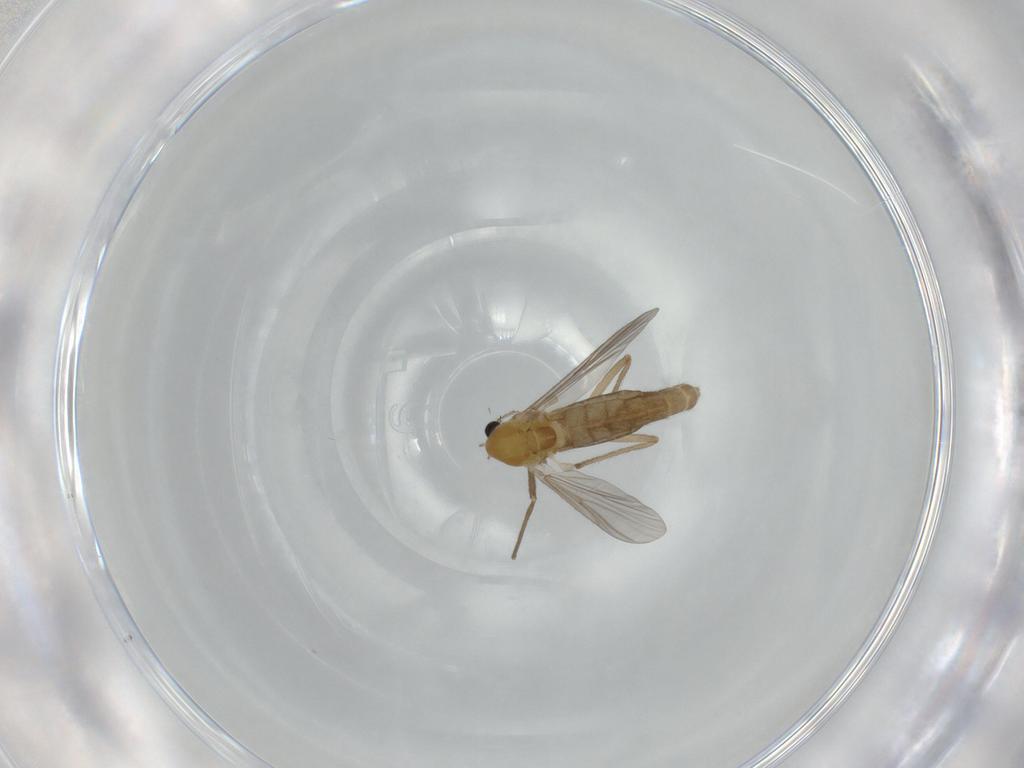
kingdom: Animalia
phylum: Arthropoda
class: Insecta
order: Diptera
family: Chironomidae
